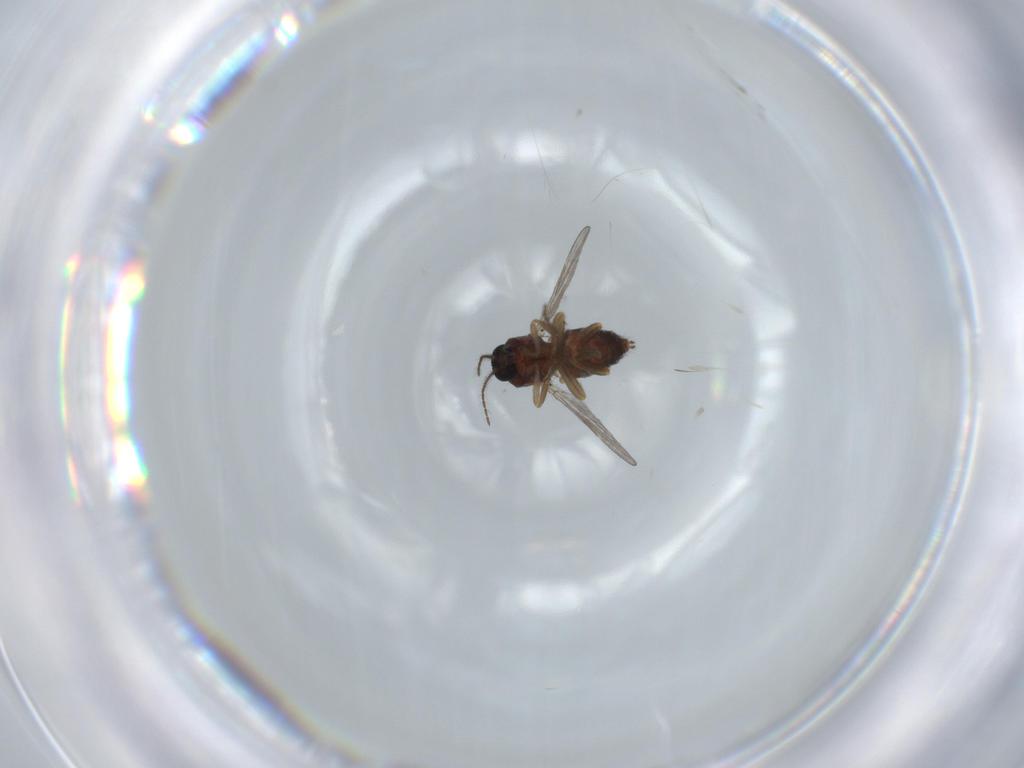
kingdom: Animalia
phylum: Arthropoda
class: Insecta
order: Diptera
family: Ceratopogonidae
